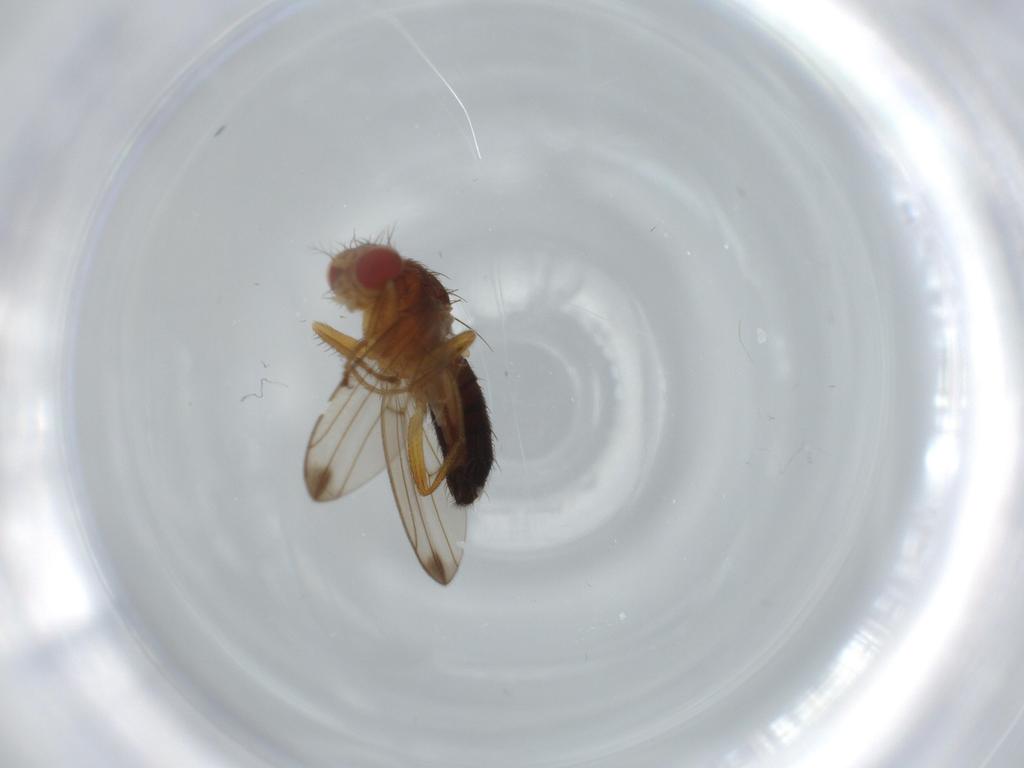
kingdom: Animalia
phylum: Arthropoda
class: Insecta
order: Diptera
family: Drosophilidae
